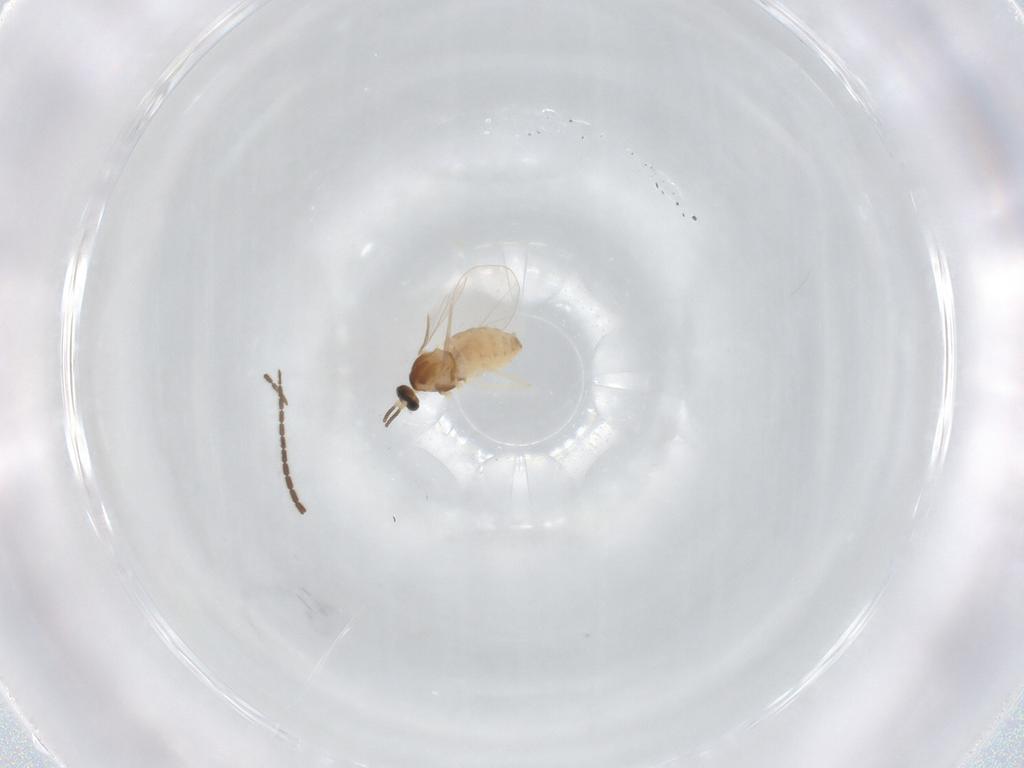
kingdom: Animalia
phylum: Arthropoda
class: Insecta
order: Diptera
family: Cecidomyiidae
